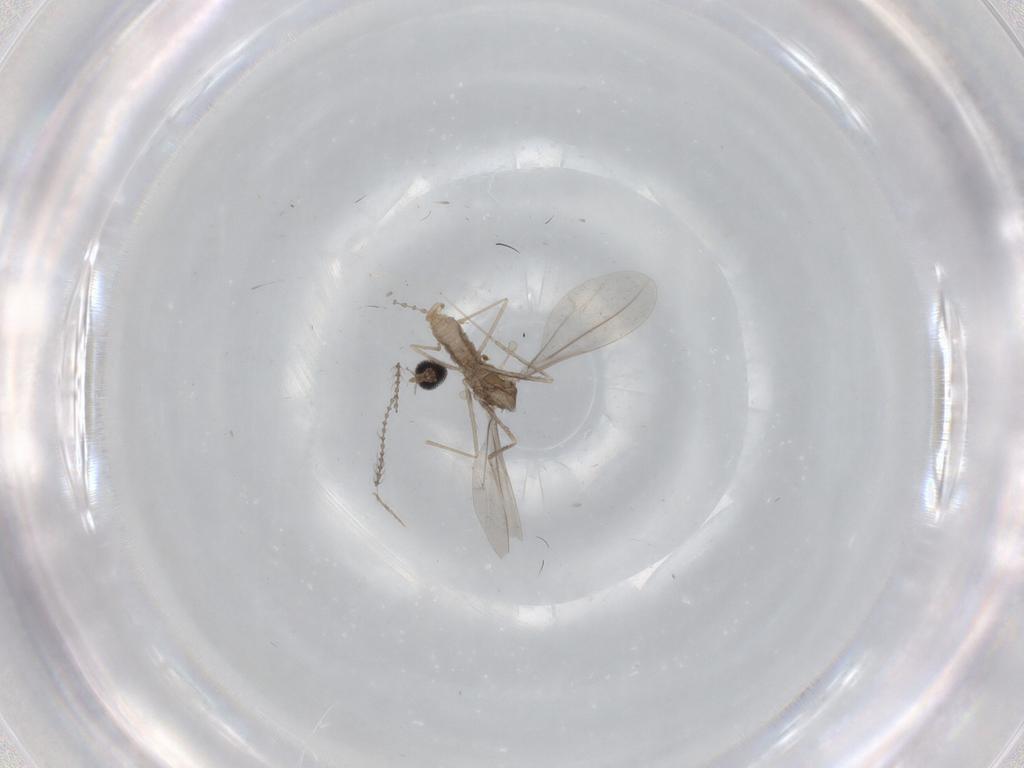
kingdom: Animalia
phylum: Arthropoda
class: Insecta
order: Diptera
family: Cecidomyiidae
